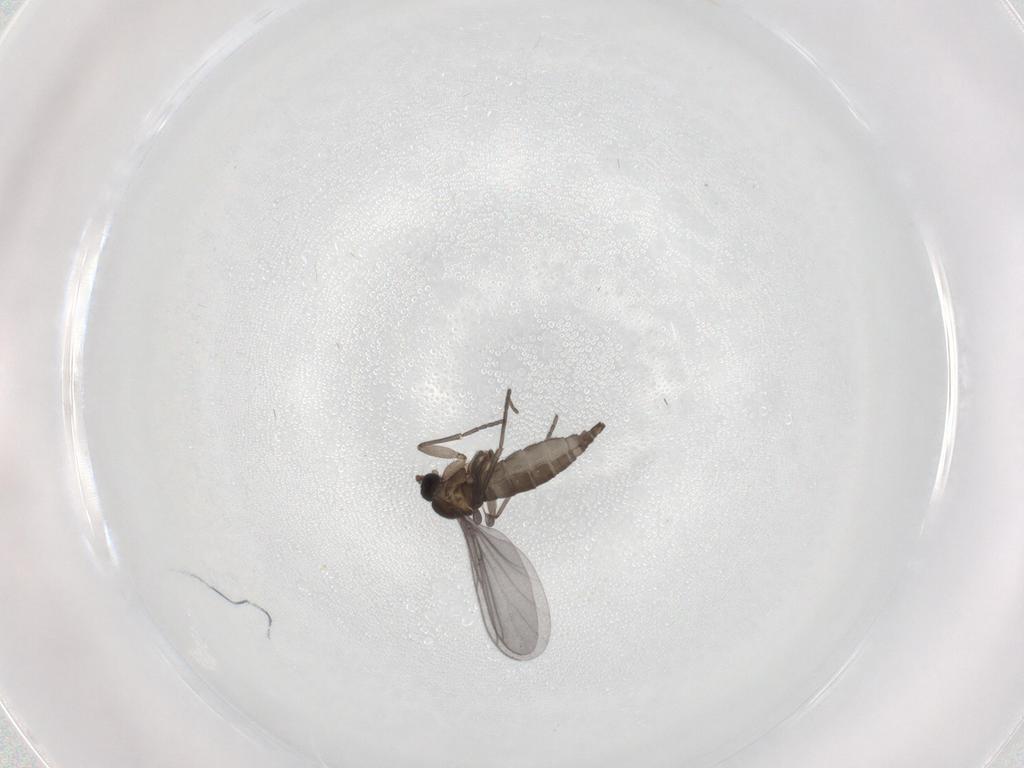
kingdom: Animalia
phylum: Arthropoda
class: Insecta
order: Diptera
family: Sciaridae
